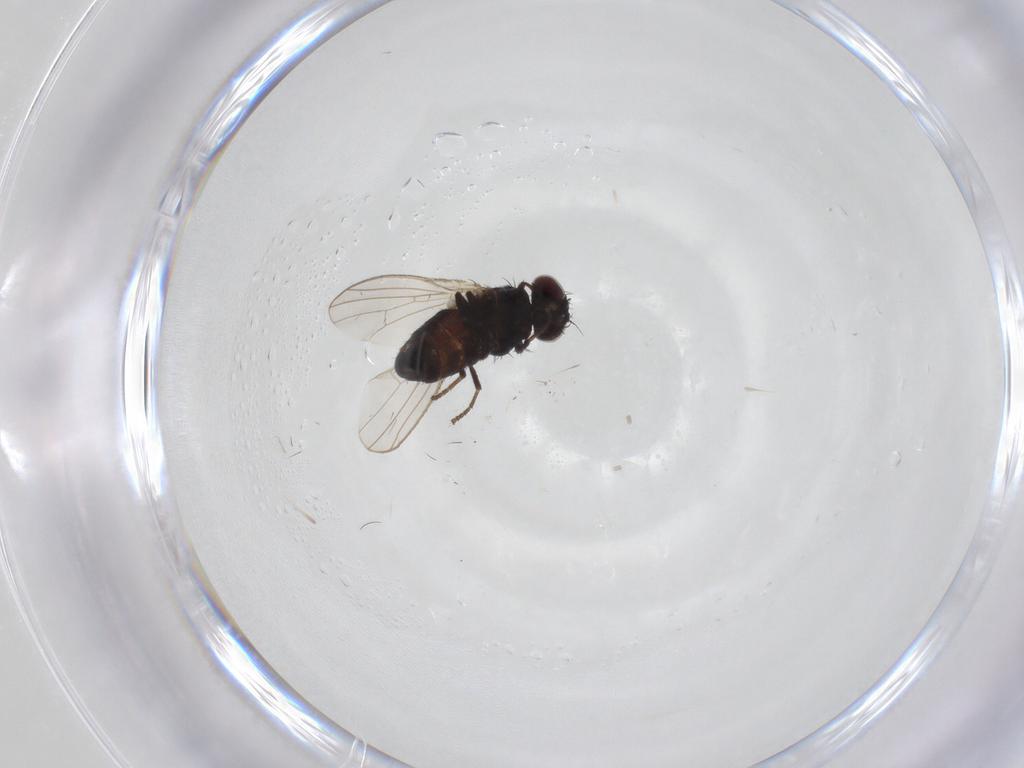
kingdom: Animalia
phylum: Arthropoda
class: Insecta
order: Diptera
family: Carnidae
